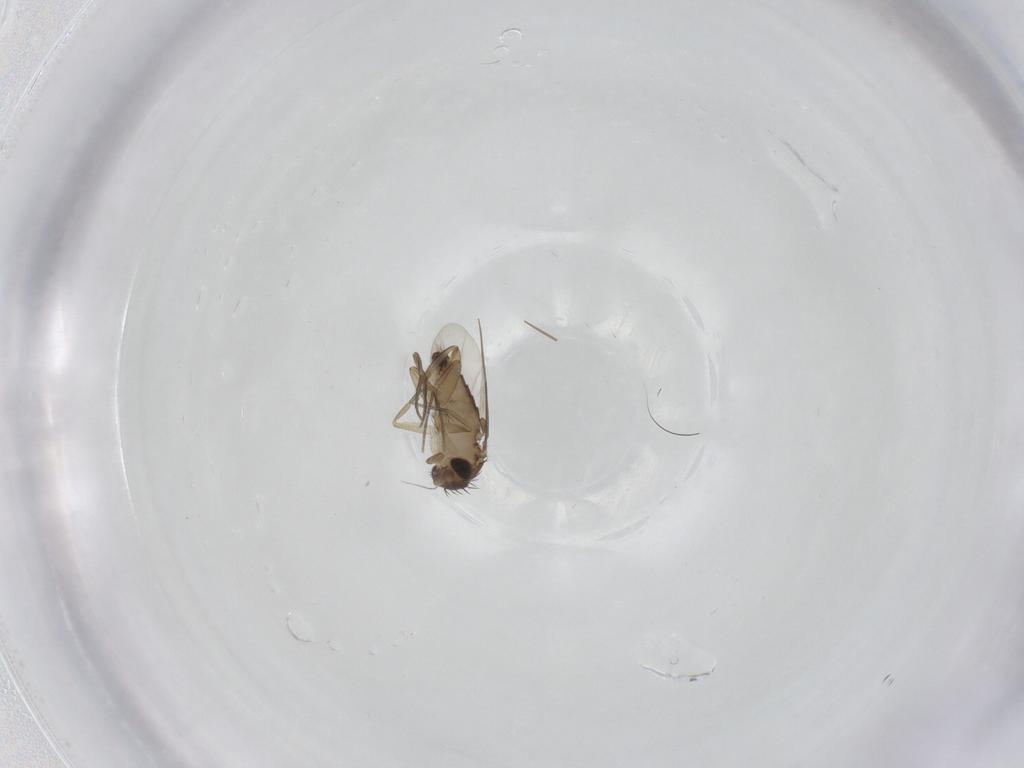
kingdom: Animalia
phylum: Arthropoda
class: Insecta
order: Diptera
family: Phoridae
